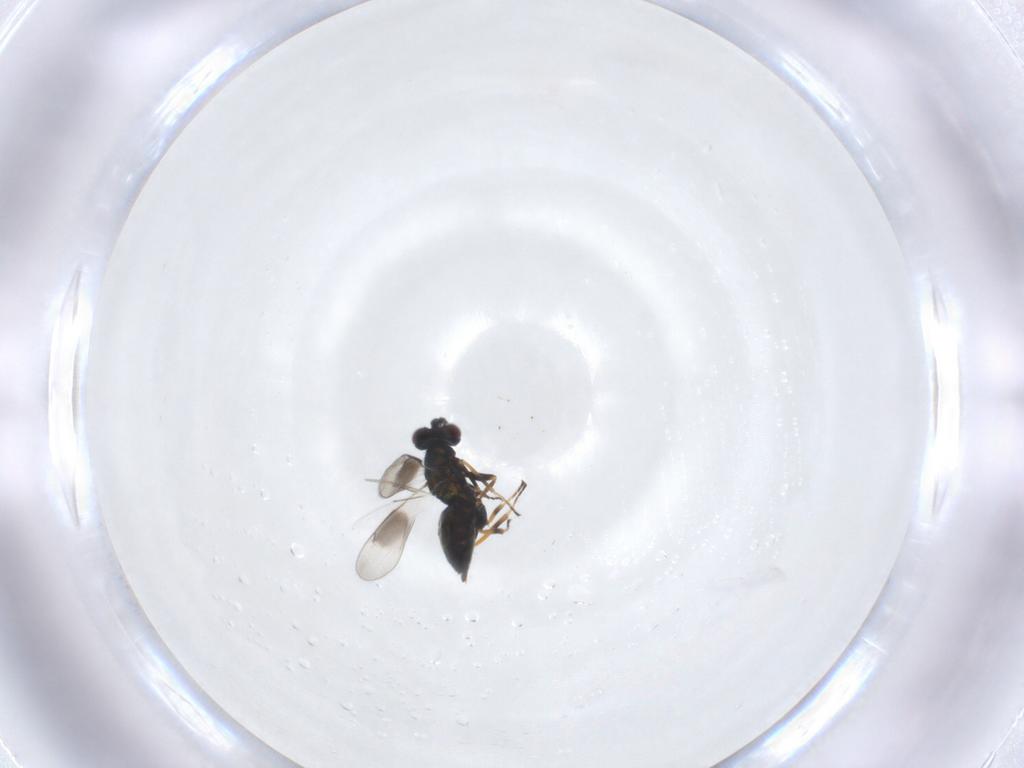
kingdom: Animalia
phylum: Arthropoda
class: Insecta
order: Hymenoptera
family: Eulophidae
